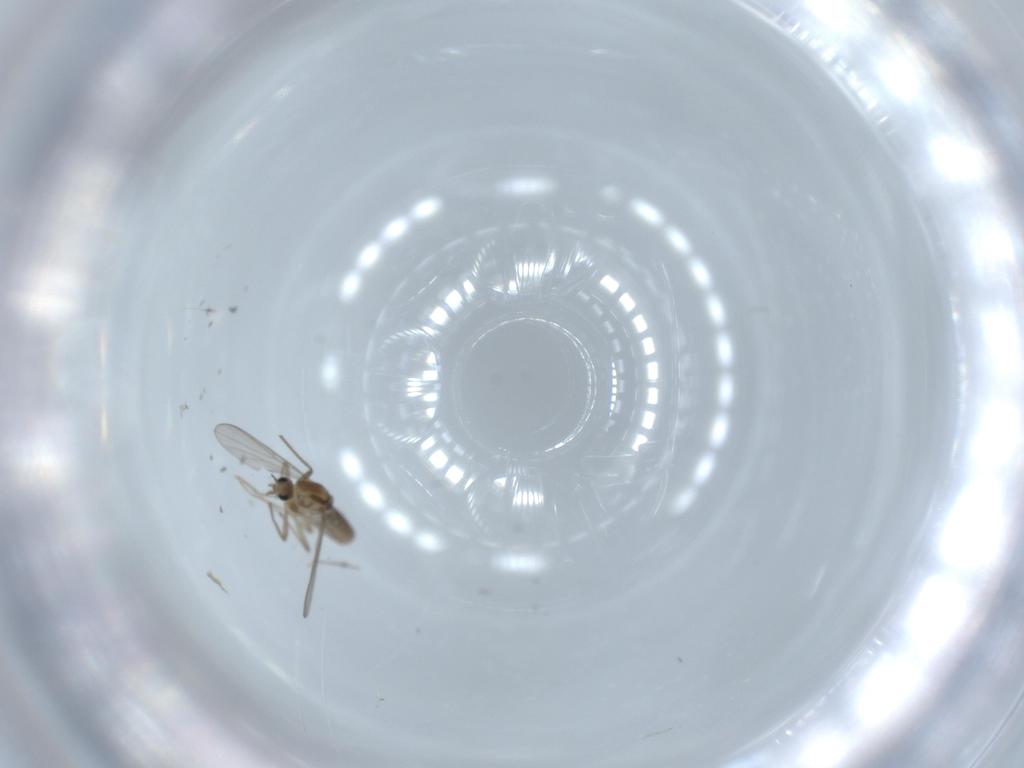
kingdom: Animalia
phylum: Arthropoda
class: Insecta
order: Diptera
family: Chironomidae
